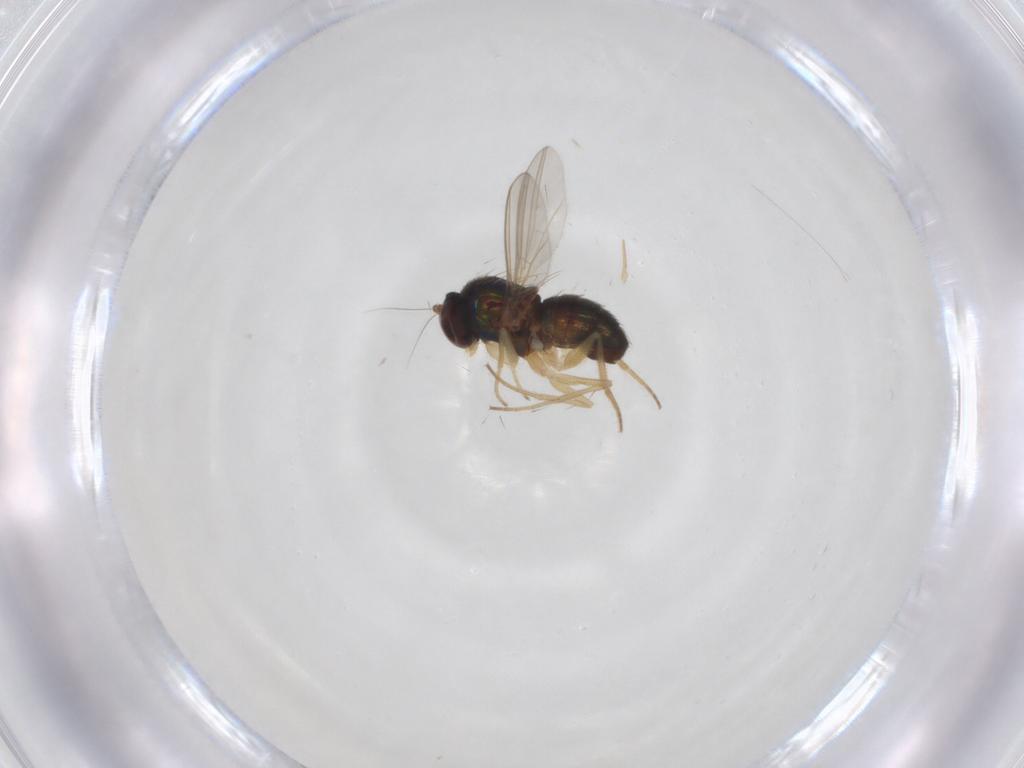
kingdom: Animalia
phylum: Arthropoda
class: Insecta
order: Diptera
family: Dolichopodidae
